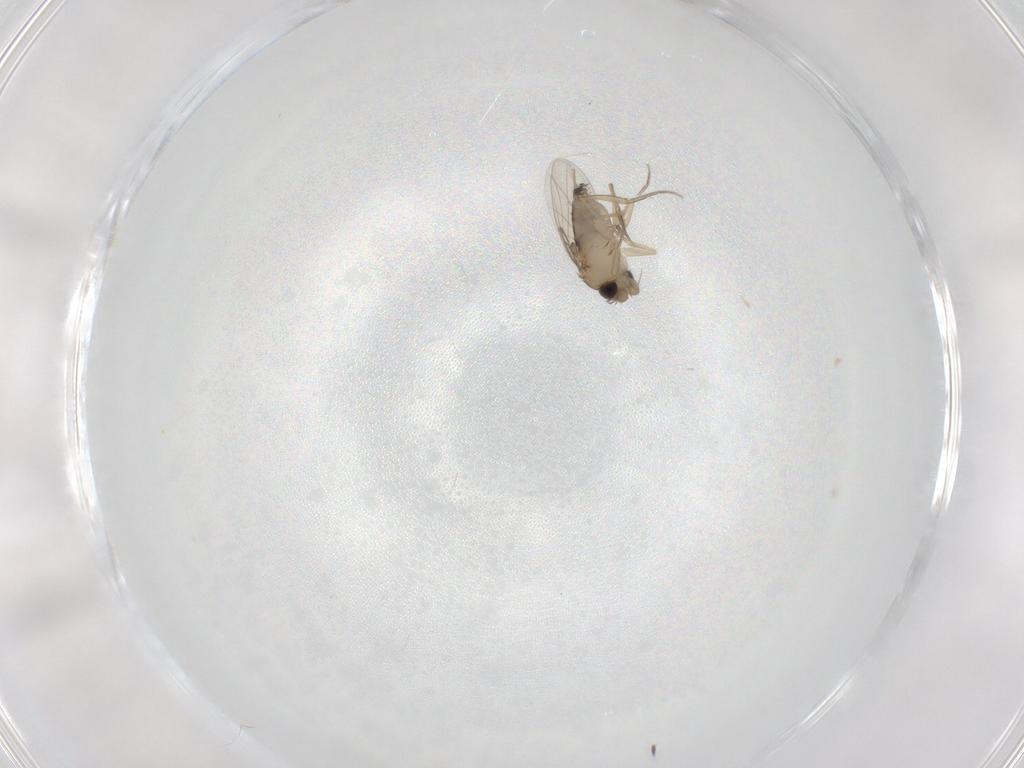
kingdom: Animalia
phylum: Arthropoda
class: Insecta
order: Diptera
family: Phoridae
